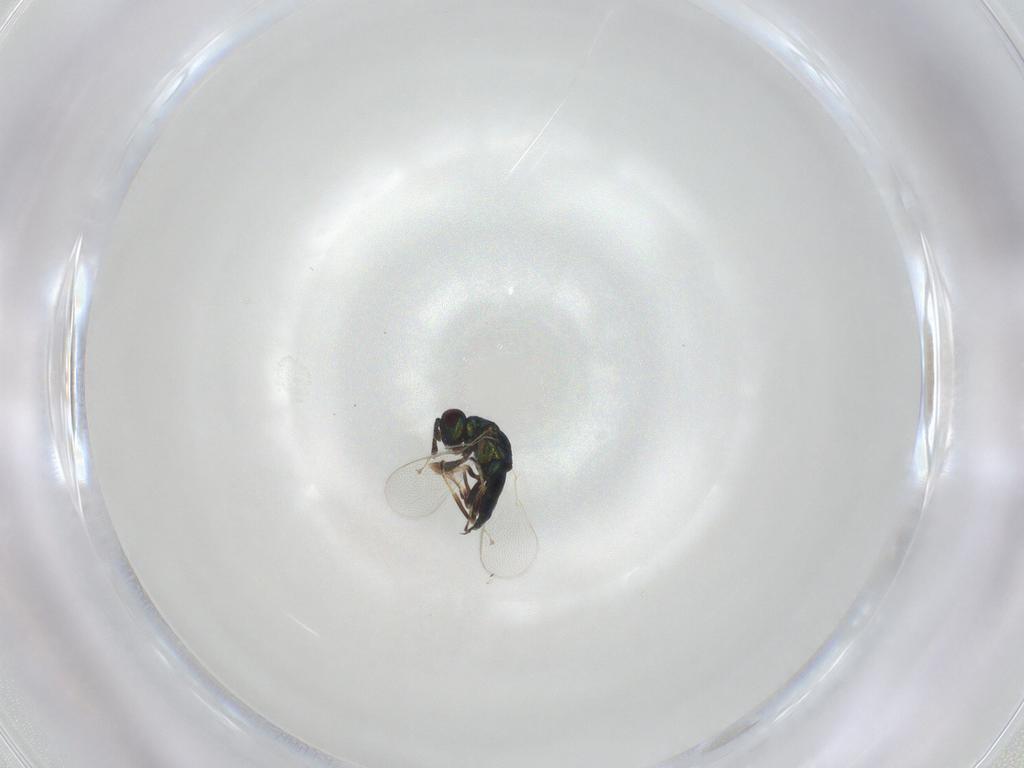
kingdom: Animalia
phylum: Arthropoda
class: Insecta
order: Hymenoptera
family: Pteromalidae
